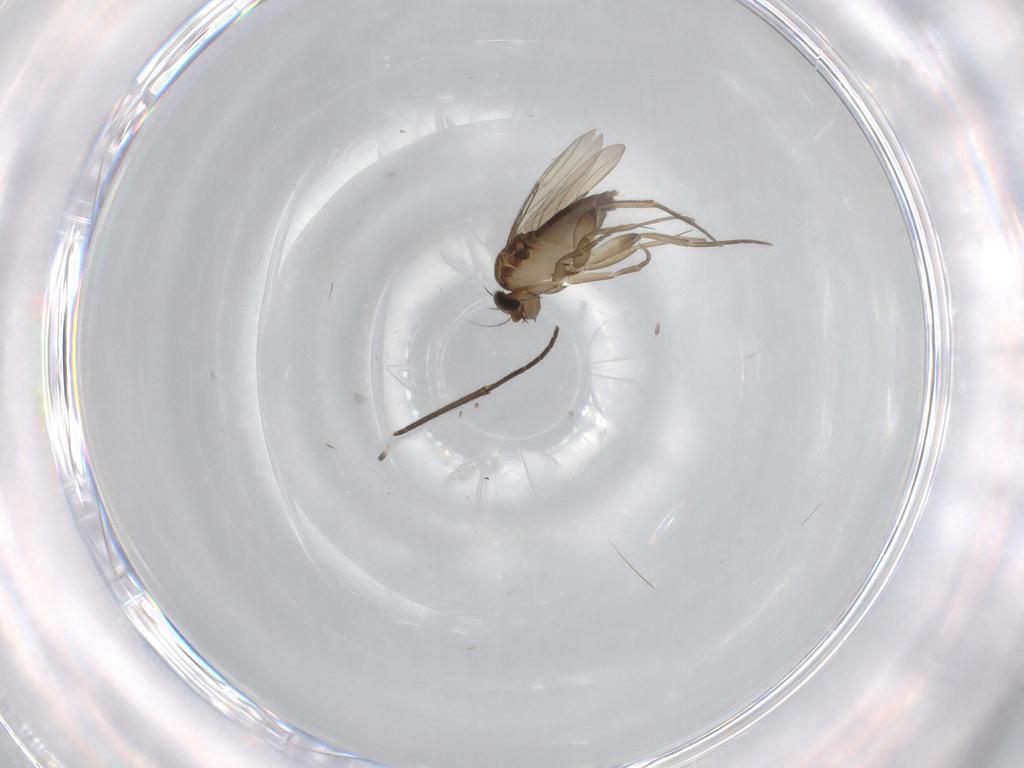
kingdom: Animalia
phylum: Arthropoda
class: Insecta
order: Diptera
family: Phoridae
